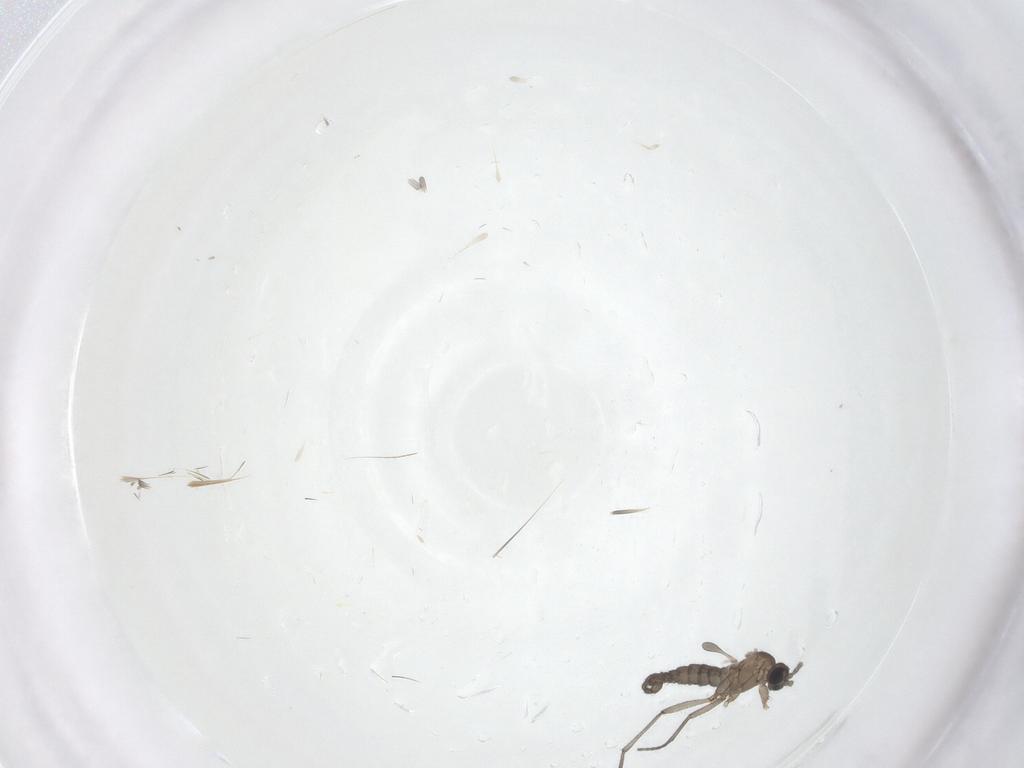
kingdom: Animalia
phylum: Arthropoda
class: Insecta
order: Diptera
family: Sciaridae
